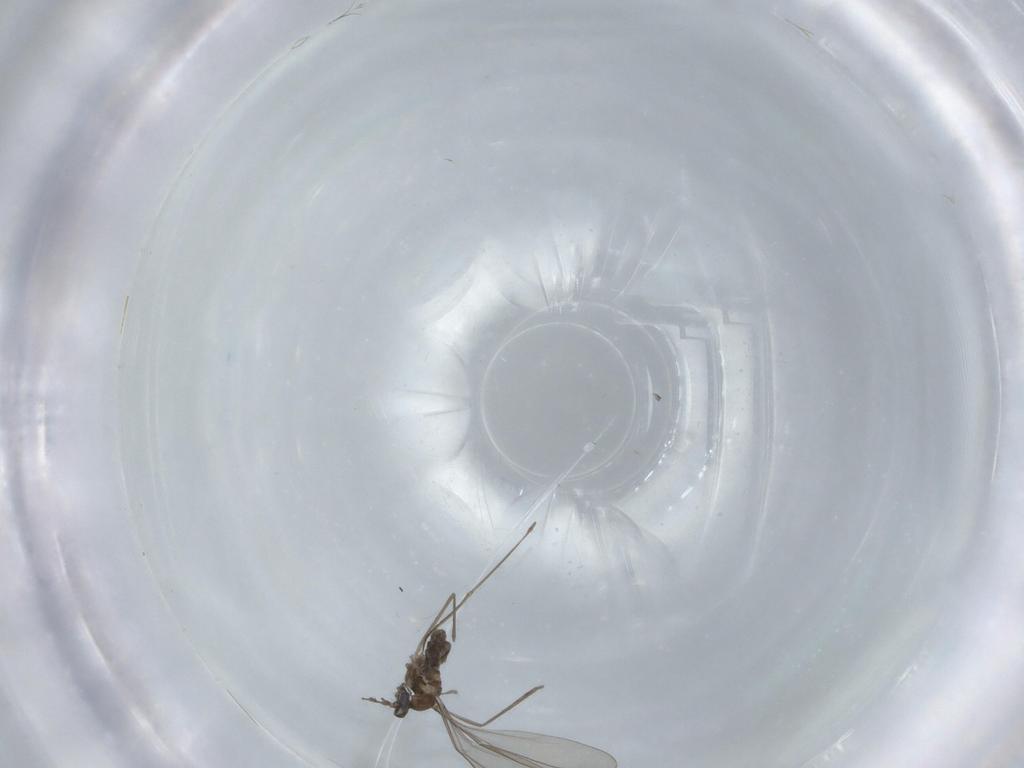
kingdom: Animalia
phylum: Arthropoda
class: Insecta
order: Diptera
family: Cecidomyiidae
